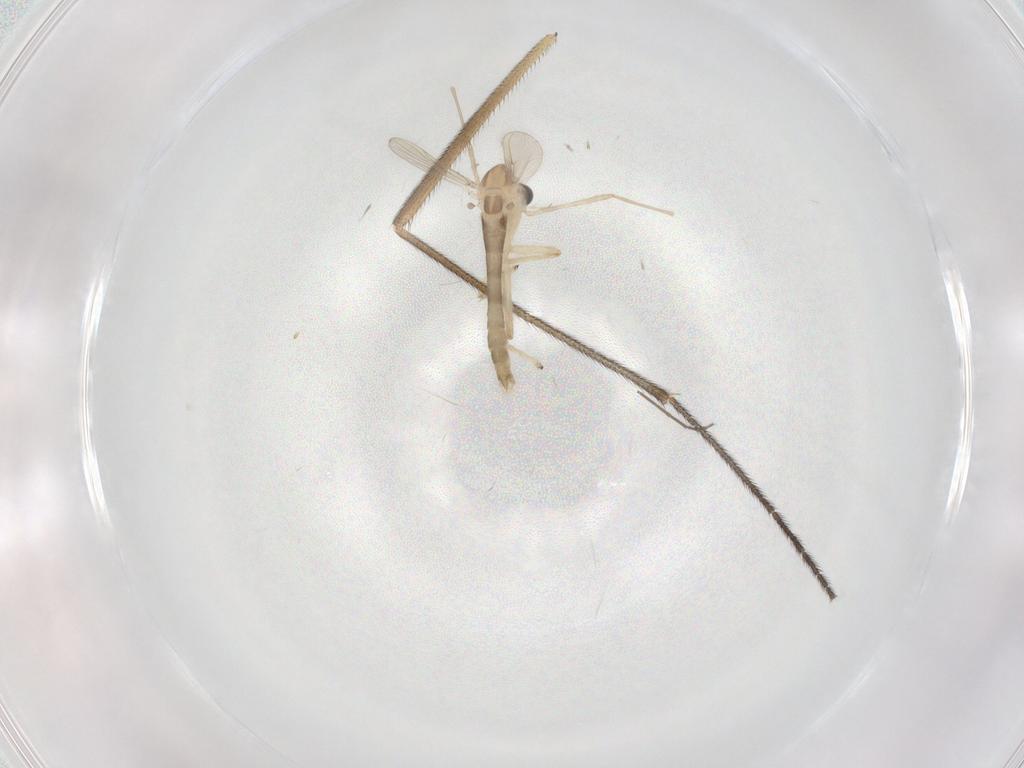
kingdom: Animalia
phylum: Arthropoda
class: Insecta
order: Diptera
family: Chironomidae
